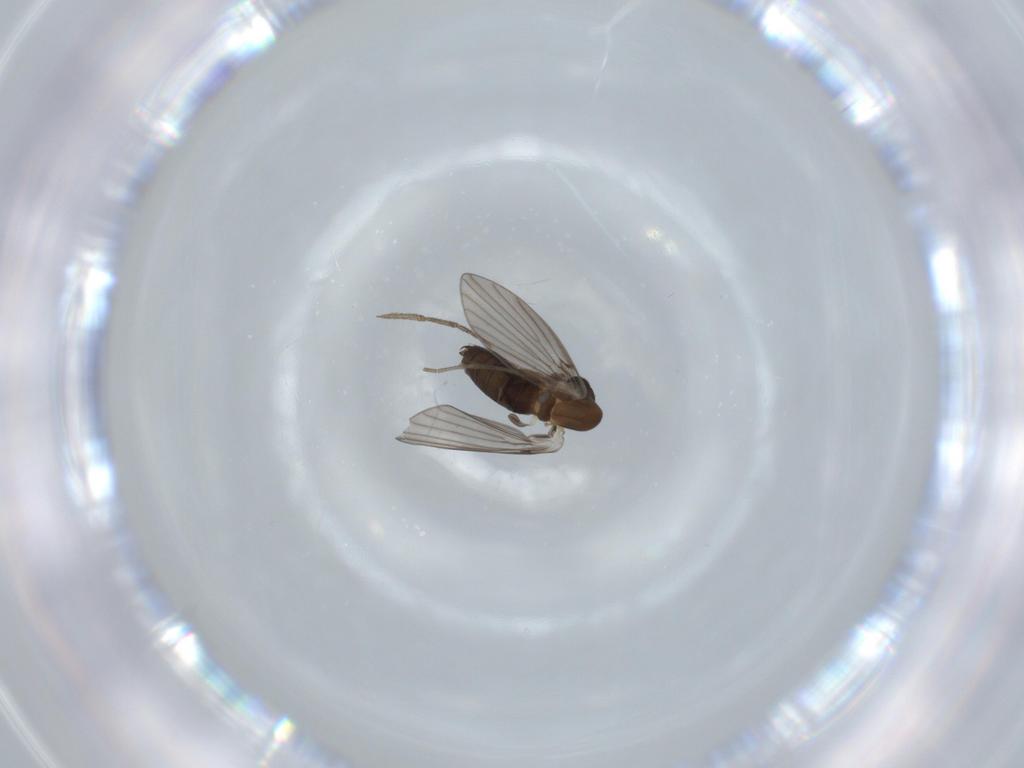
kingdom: Animalia
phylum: Arthropoda
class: Insecta
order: Diptera
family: Psychodidae
